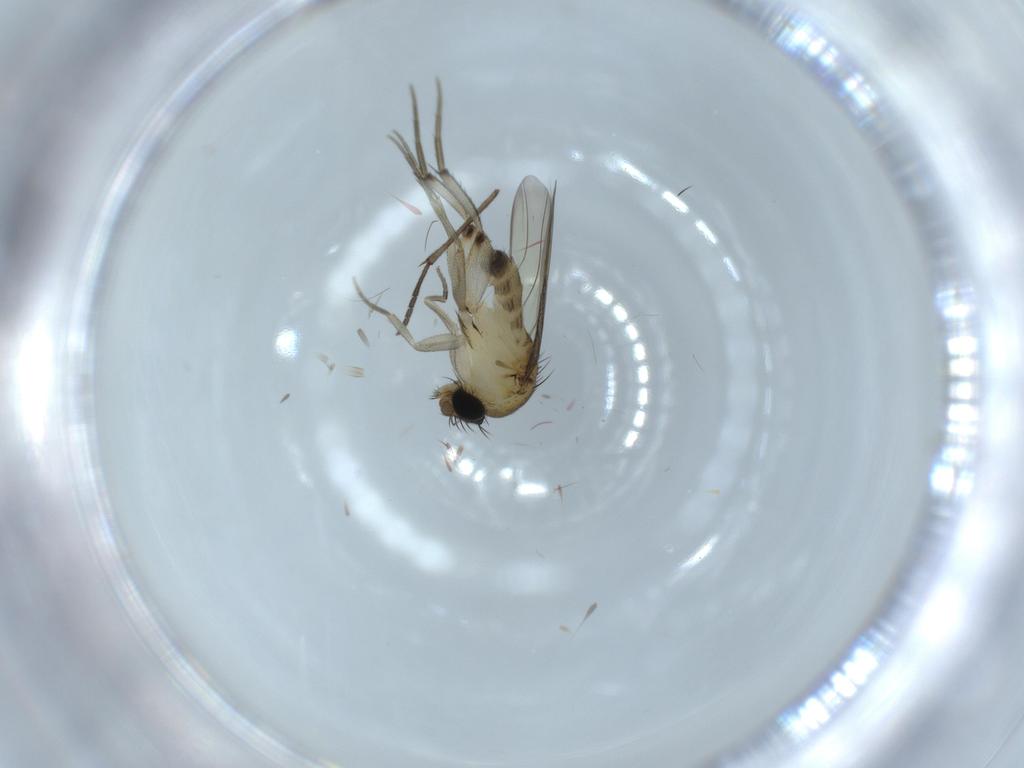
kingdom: Animalia
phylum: Arthropoda
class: Insecta
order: Diptera
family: Phoridae
